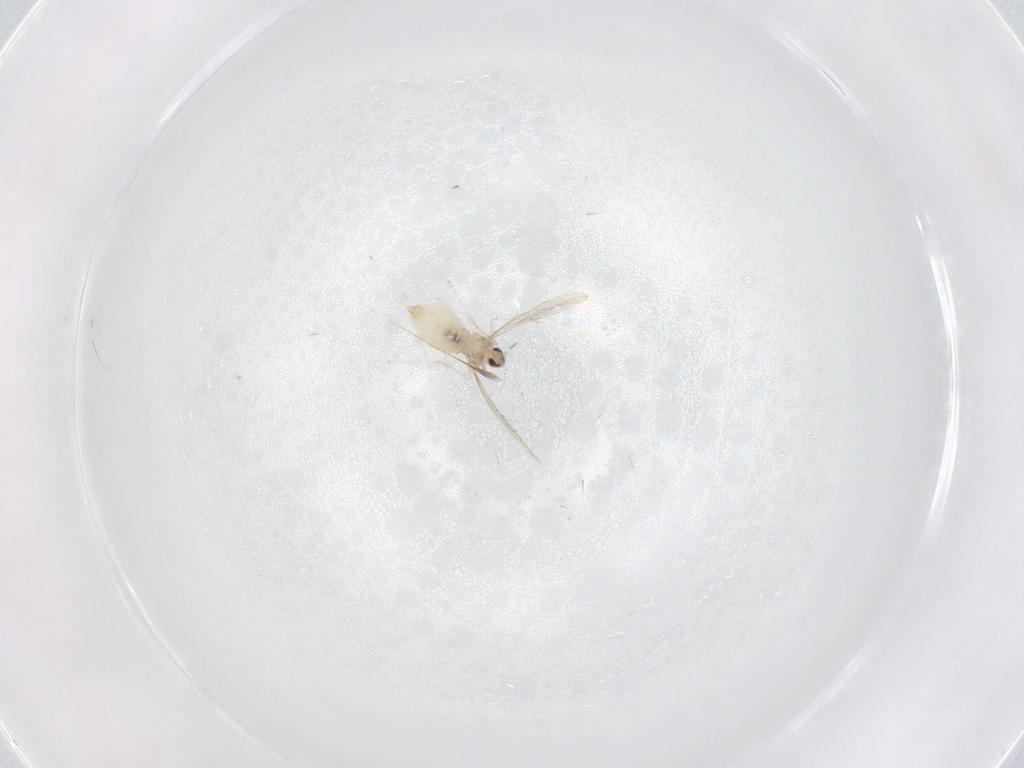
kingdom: Animalia
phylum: Arthropoda
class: Insecta
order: Diptera
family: Cecidomyiidae
